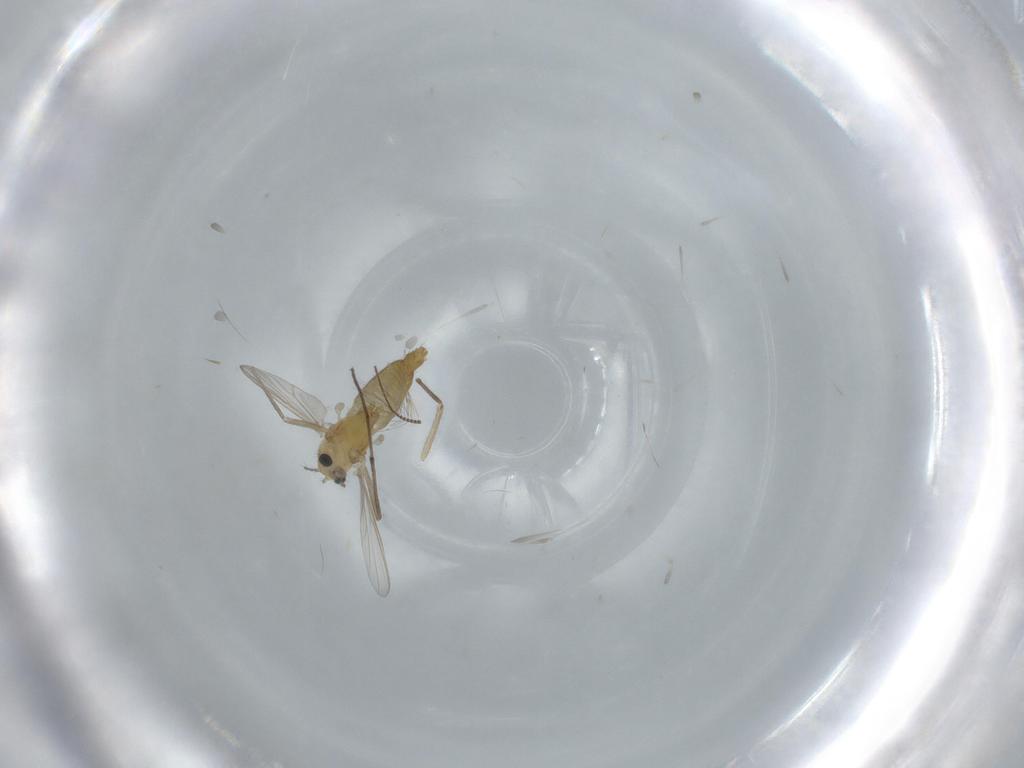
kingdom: Animalia
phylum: Arthropoda
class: Insecta
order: Diptera
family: Chironomidae
